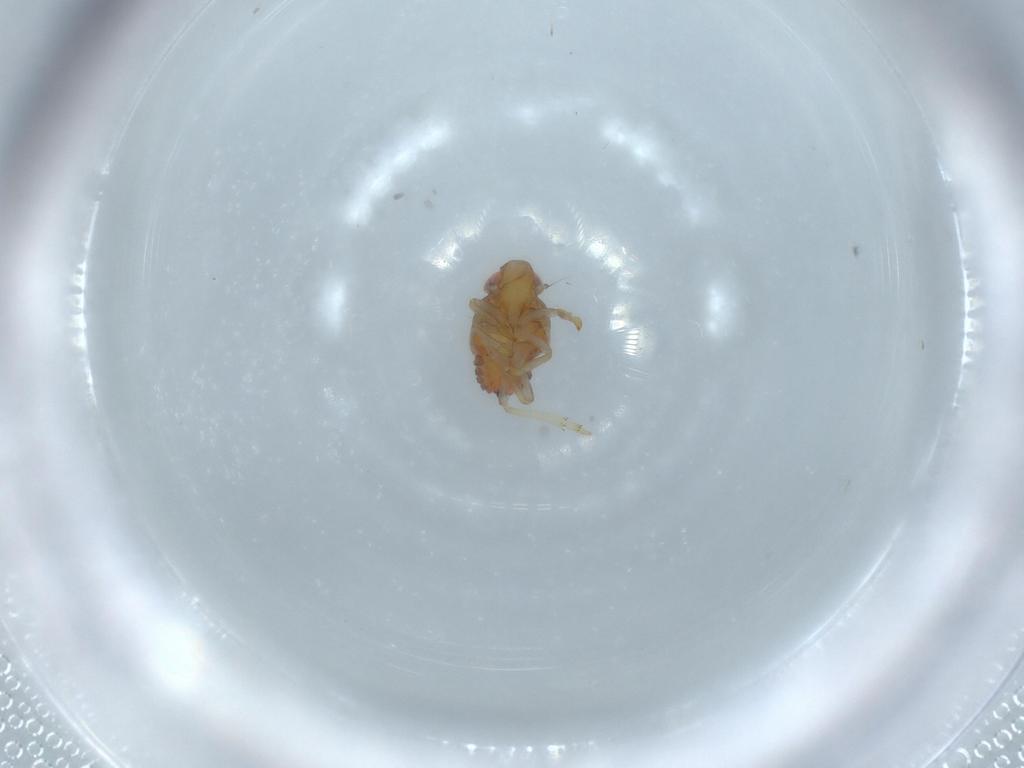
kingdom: Animalia
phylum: Arthropoda
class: Insecta
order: Hemiptera
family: Issidae
